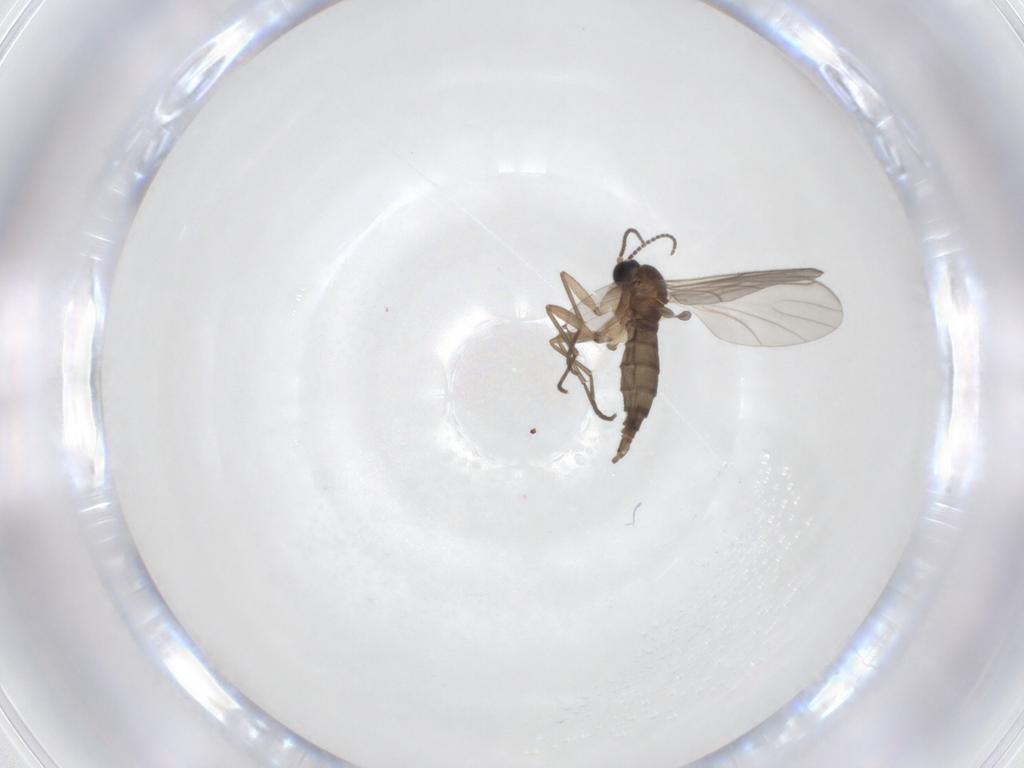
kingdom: Animalia
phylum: Arthropoda
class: Insecta
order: Diptera
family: Sciaridae
